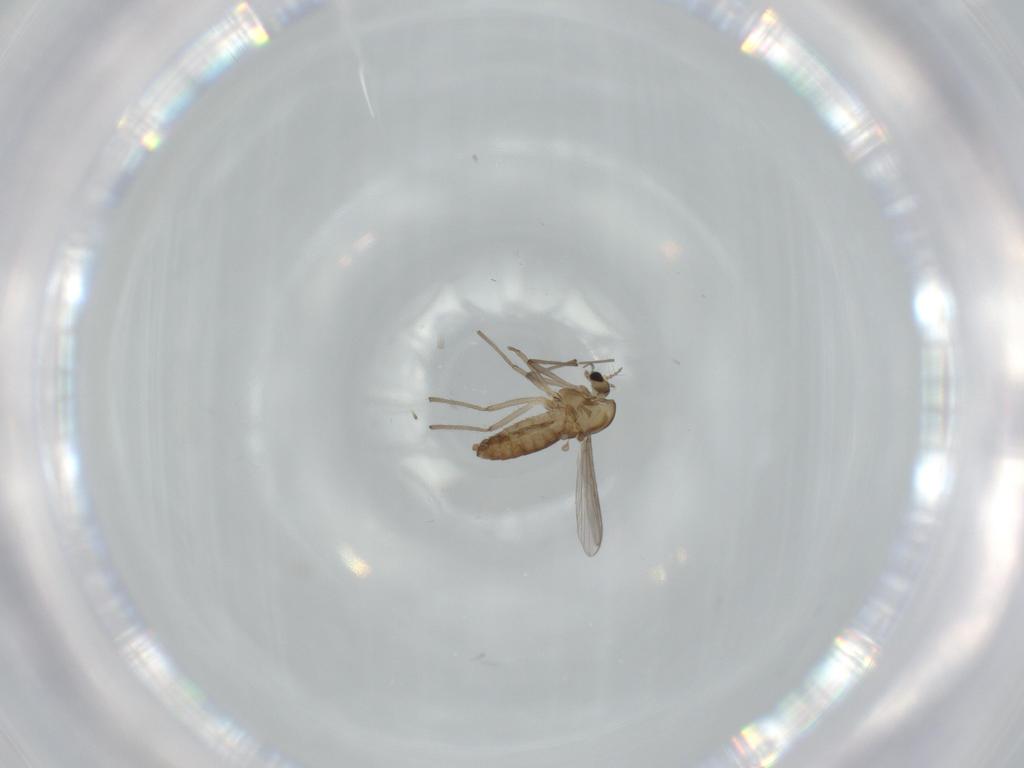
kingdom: Animalia
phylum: Arthropoda
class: Insecta
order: Diptera
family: Chironomidae
